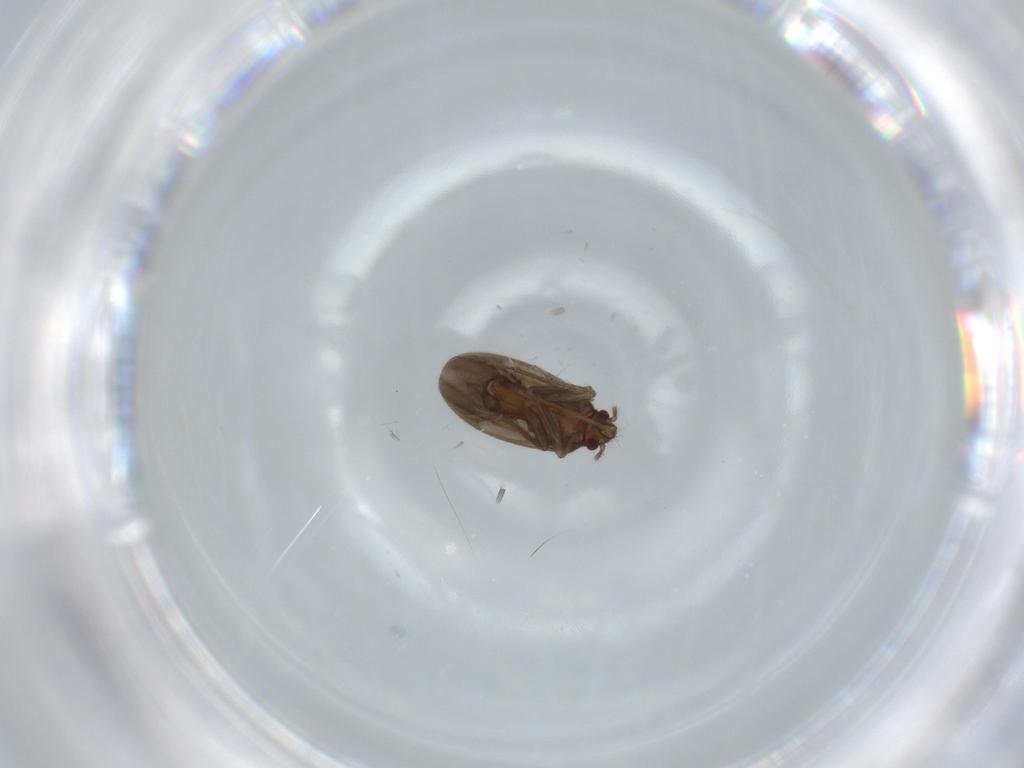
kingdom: Animalia
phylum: Arthropoda
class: Insecta
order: Hemiptera
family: Ceratocombidae
